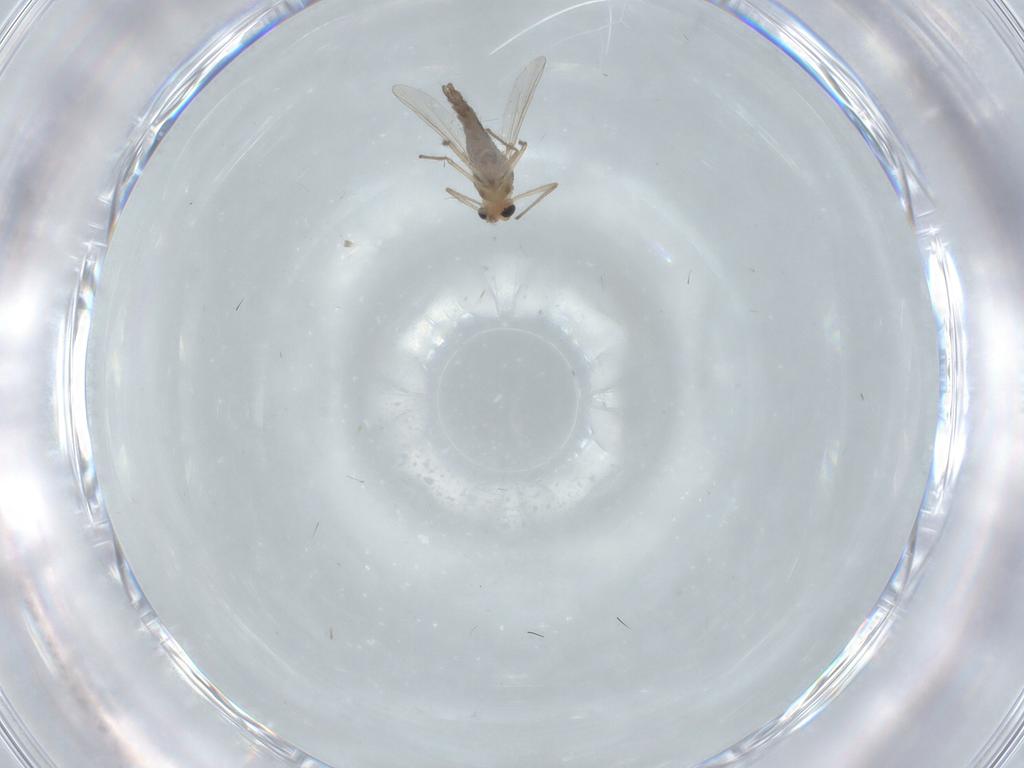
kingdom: Animalia
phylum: Arthropoda
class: Insecta
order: Diptera
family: Chironomidae
